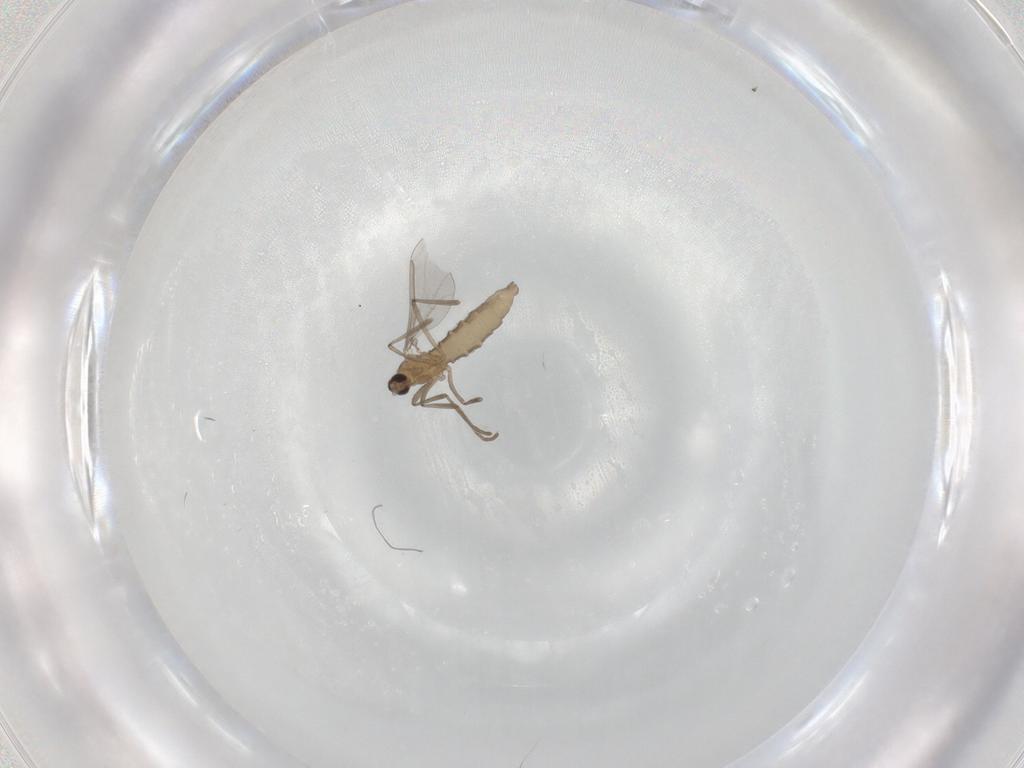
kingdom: Animalia
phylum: Arthropoda
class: Insecta
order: Diptera
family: Cecidomyiidae
